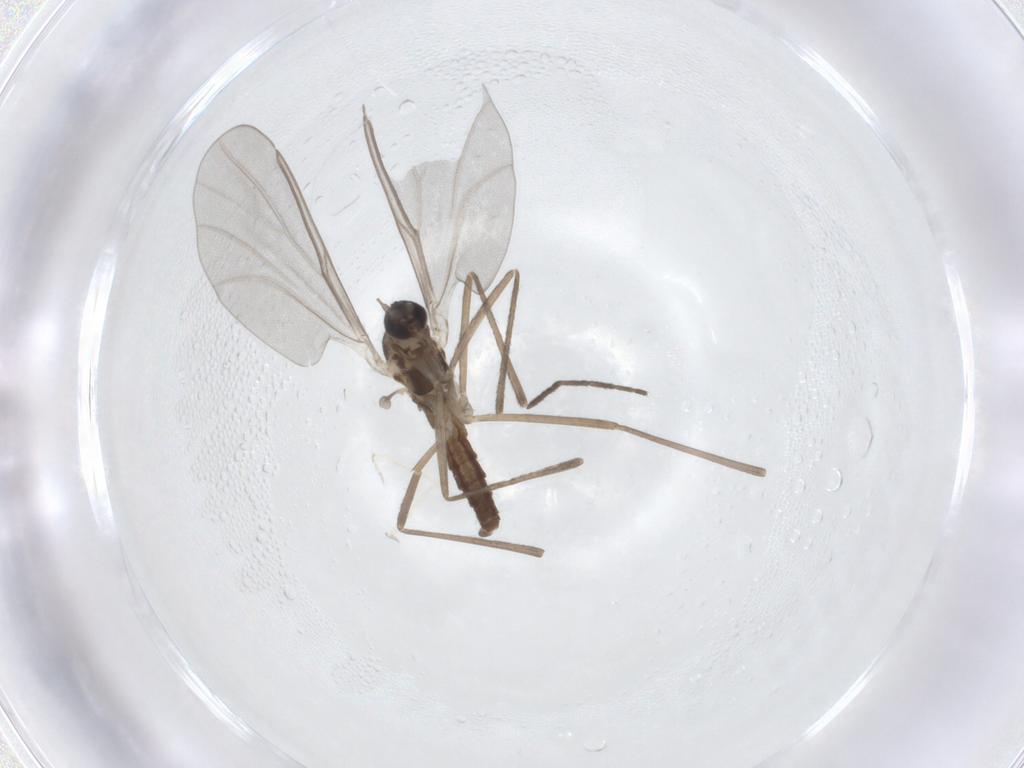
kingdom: Animalia
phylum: Arthropoda
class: Insecta
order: Diptera
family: Cecidomyiidae
